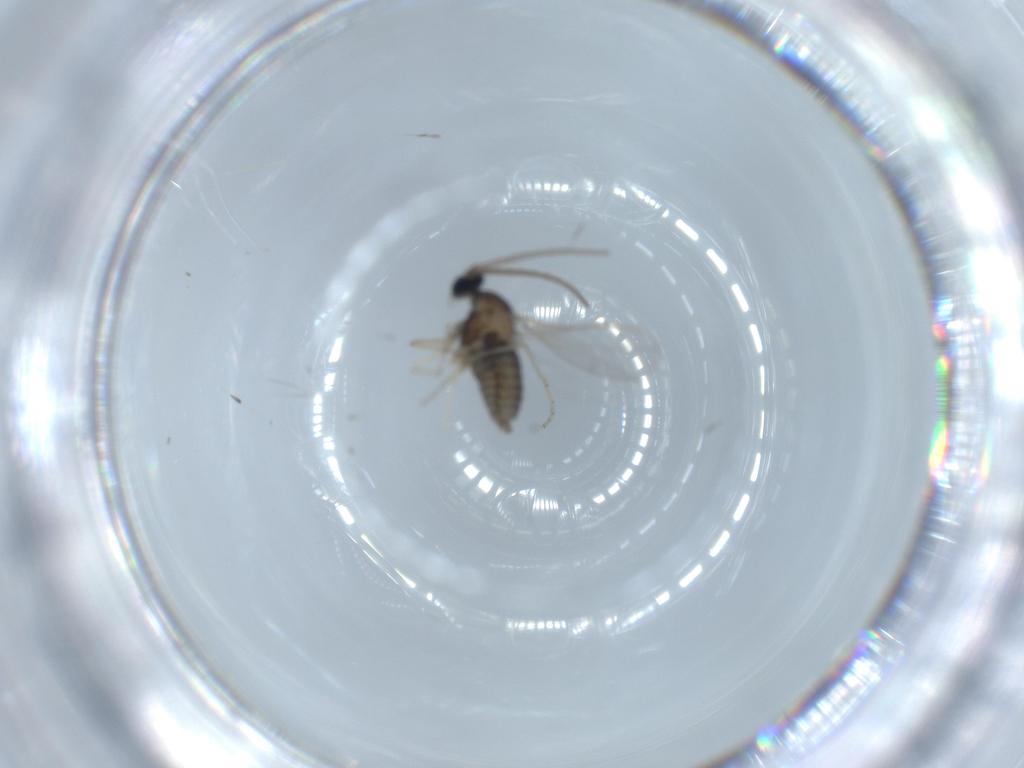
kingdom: Animalia
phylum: Arthropoda
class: Insecta
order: Diptera
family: Cecidomyiidae
